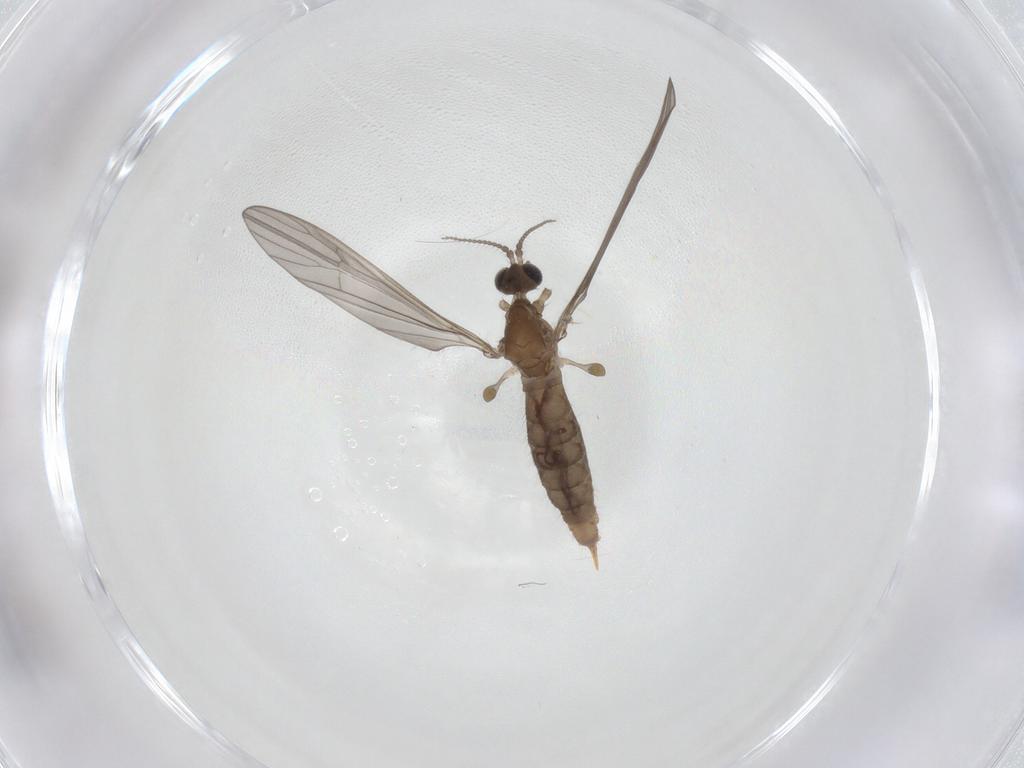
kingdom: Animalia
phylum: Arthropoda
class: Insecta
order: Diptera
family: Limoniidae
